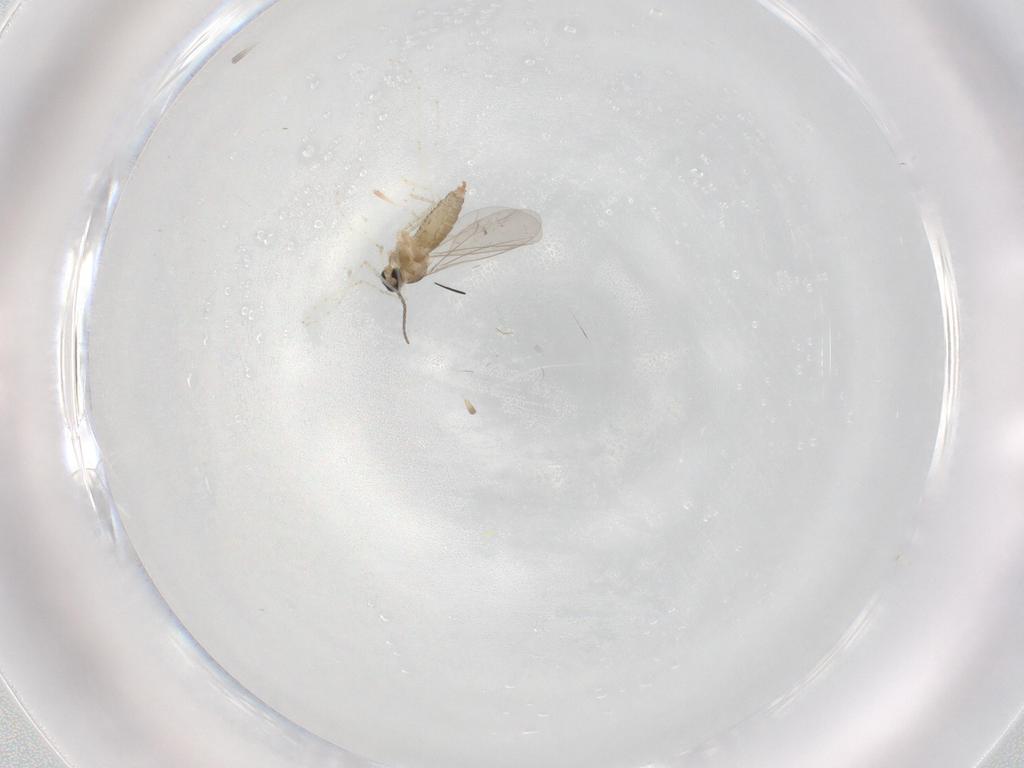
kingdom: Animalia
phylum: Arthropoda
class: Insecta
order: Diptera
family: Cecidomyiidae
